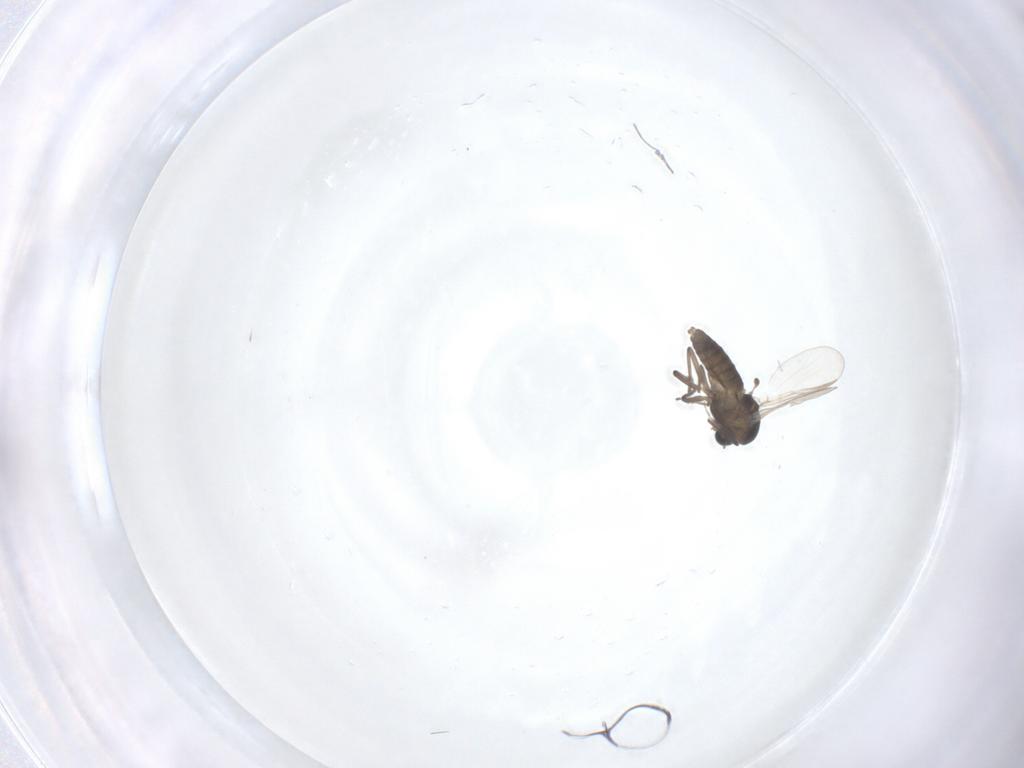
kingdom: Animalia
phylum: Arthropoda
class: Insecta
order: Diptera
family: Chironomidae
